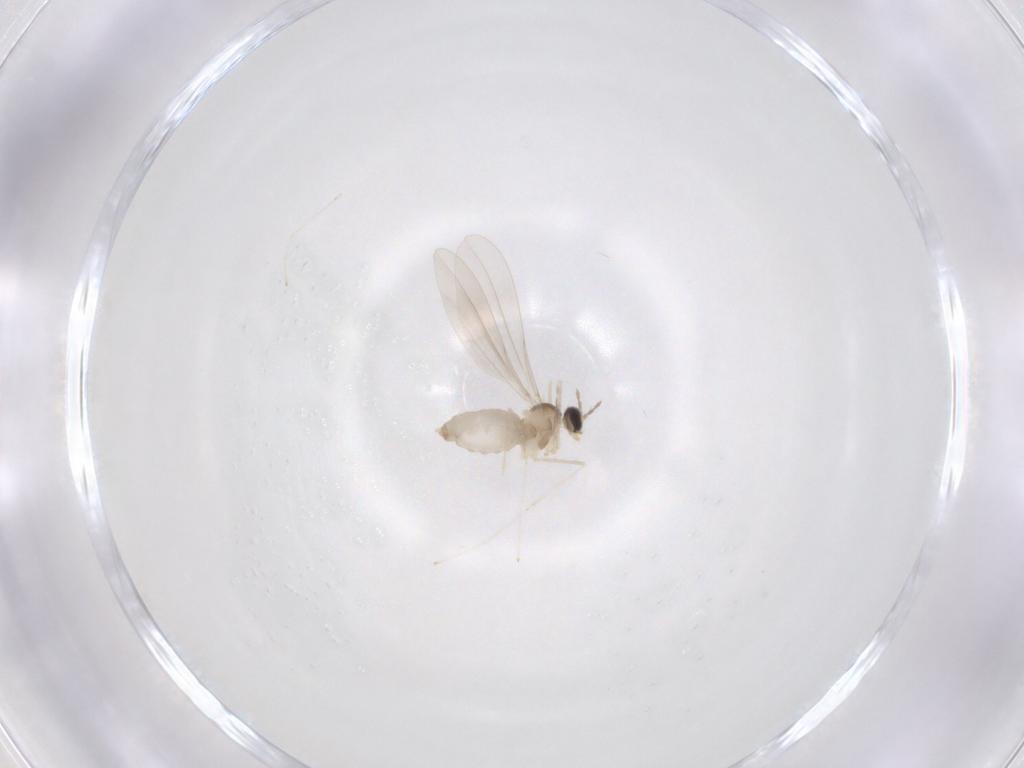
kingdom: Animalia
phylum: Arthropoda
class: Insecta
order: Diptera
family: Cecidomyiidae
